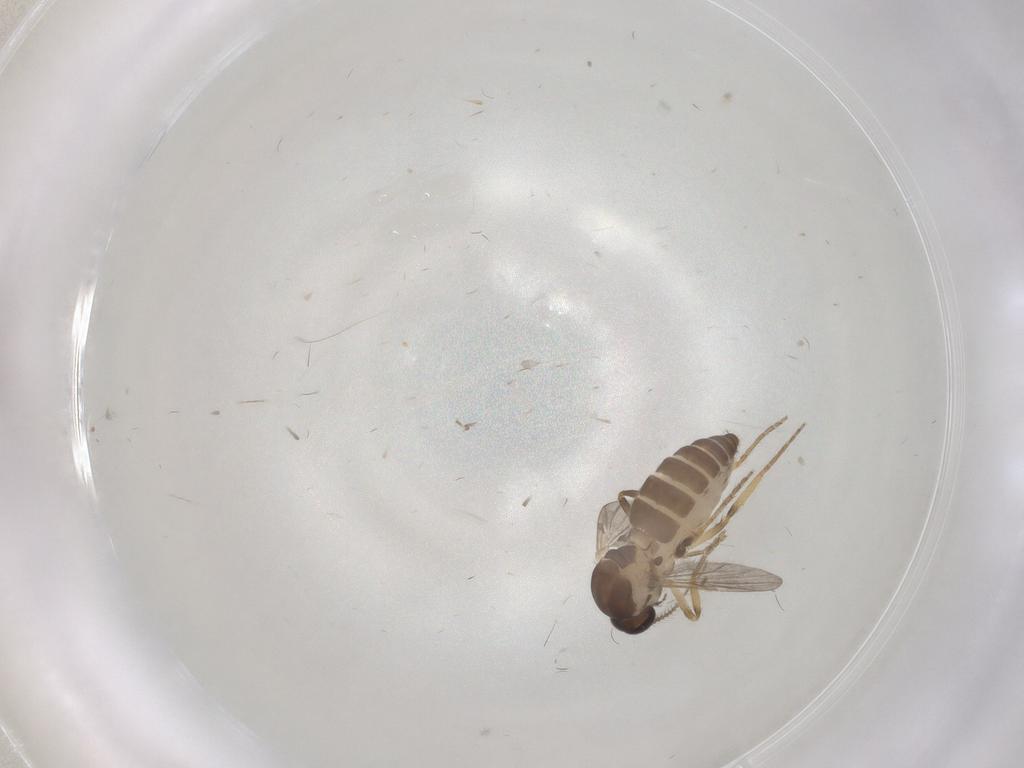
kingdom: Animalia
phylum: Arthropoda
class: Insecta
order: Diptera
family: Ceratopogonidae
